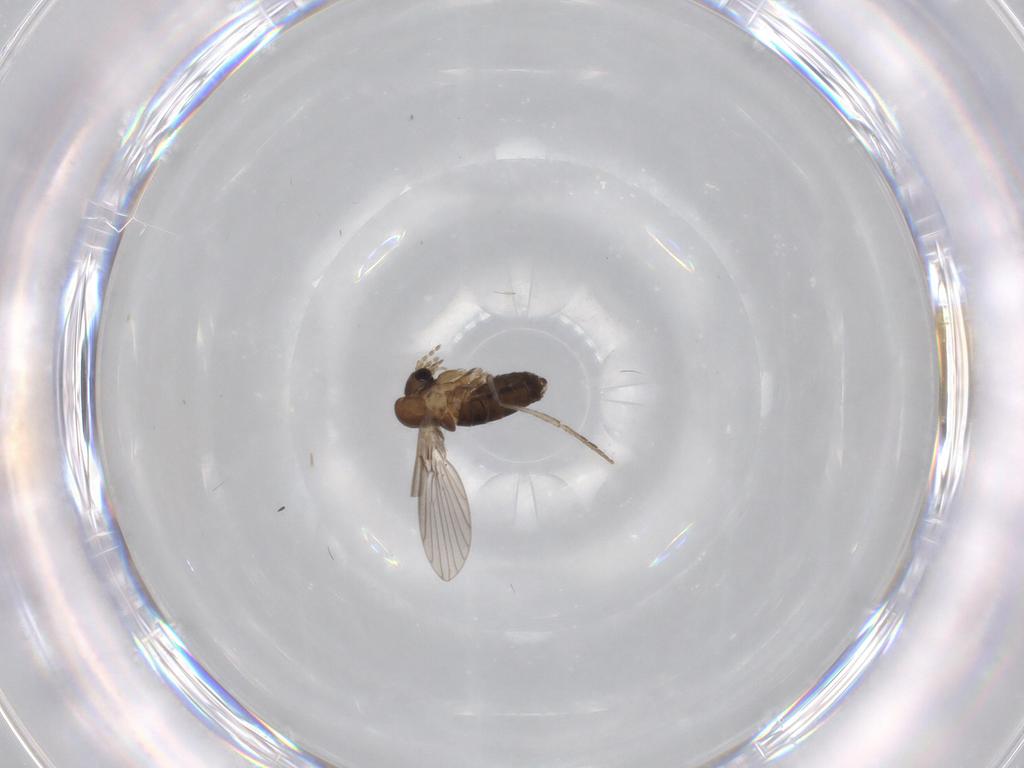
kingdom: Animalia
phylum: Arthropoda
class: Insecta
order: Diptera
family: Psychodidae
